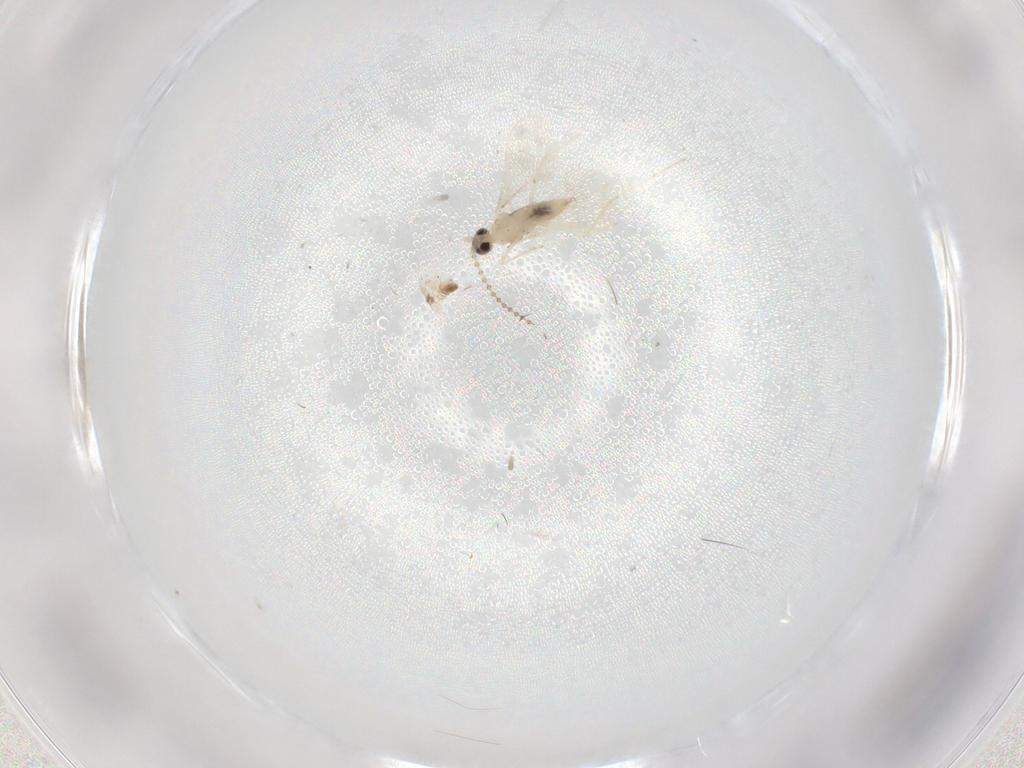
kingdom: Animalia
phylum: Arthropoda
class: Insecta
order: Diptera
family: Cecidomyiidae
